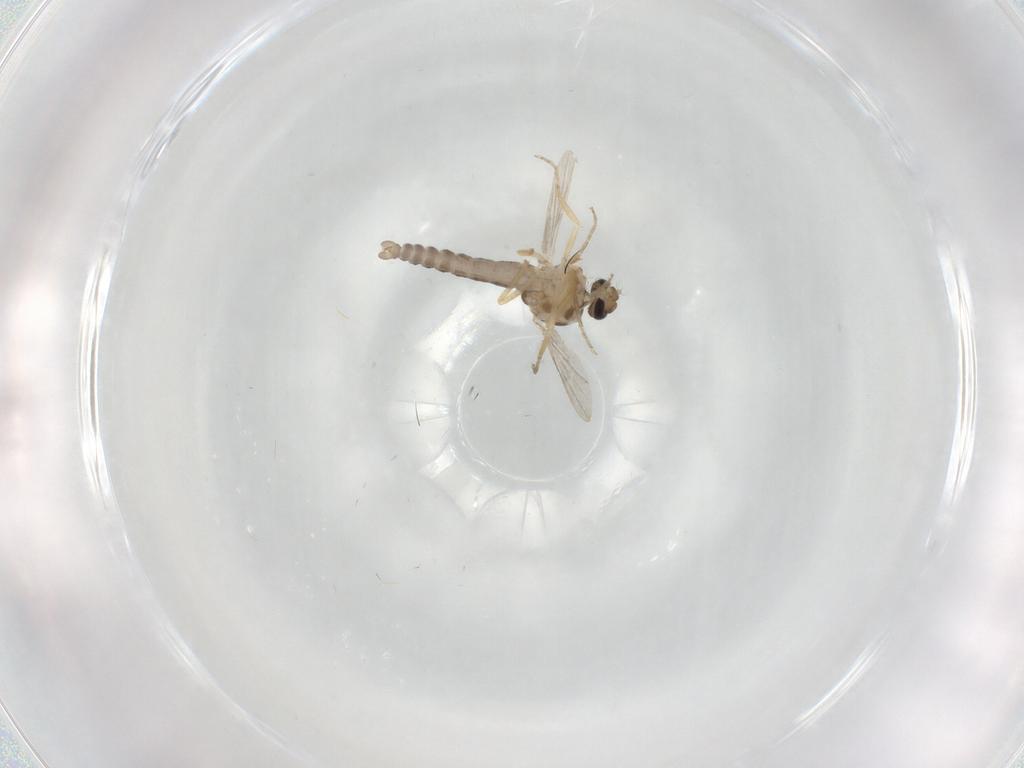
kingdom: Animalia
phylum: Arthropoda
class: Insecta
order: Diptera
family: Ceratopogonidae
